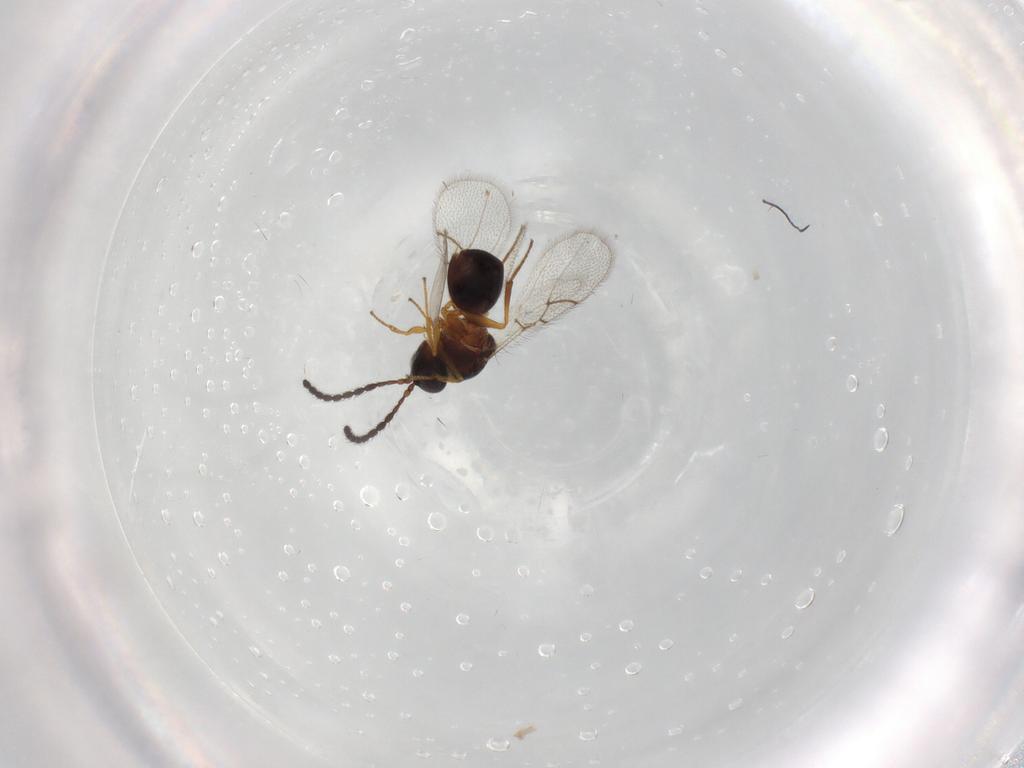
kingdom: Animalia
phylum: Arthropoda
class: Insecta
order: Hymenoptera
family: Figitidae
